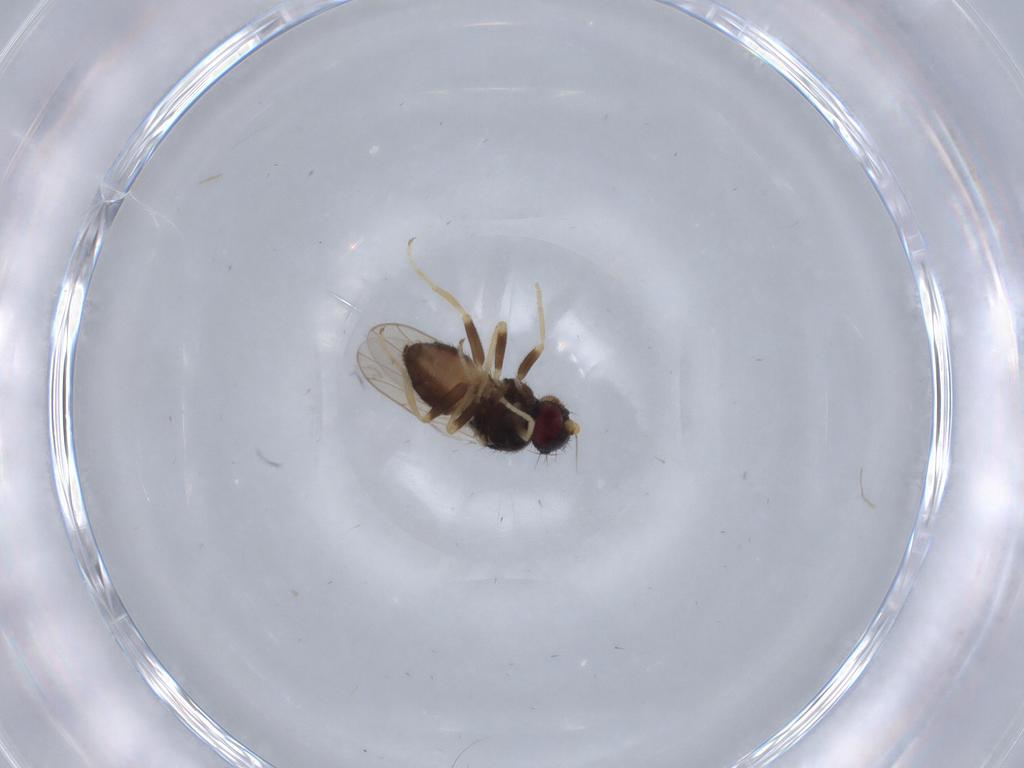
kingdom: Animalia
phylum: Arthropoda
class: Insecta
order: Diptera
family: Chloropidae
